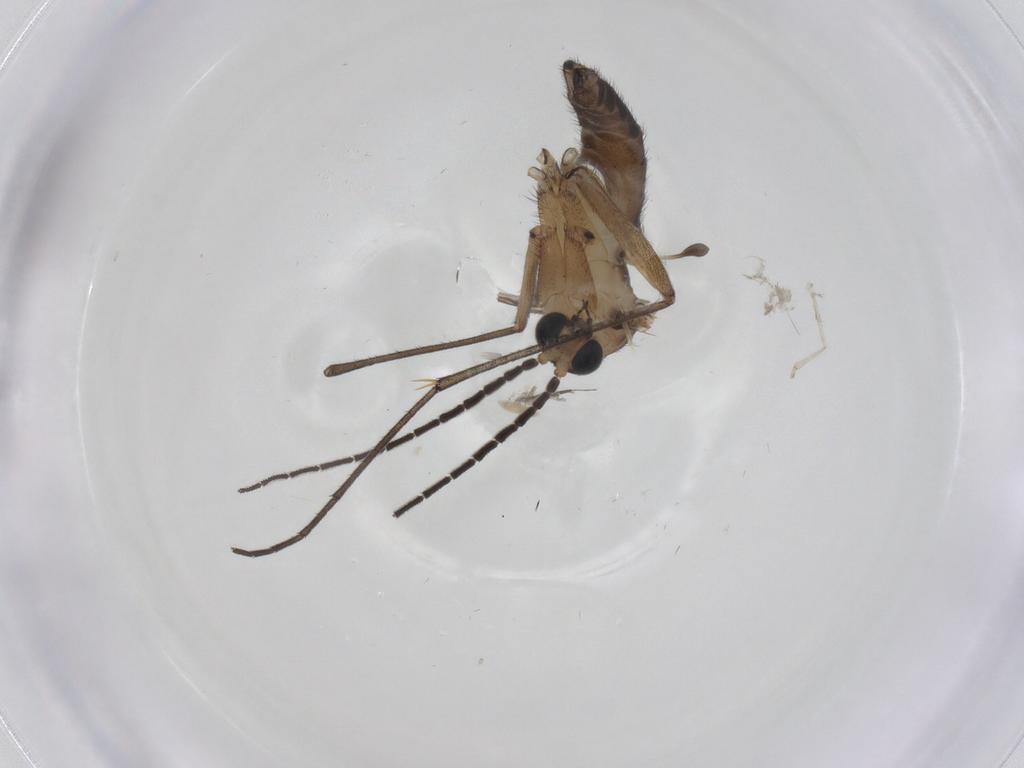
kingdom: Animalia
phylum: Arthropoda
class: Insecta
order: Diptera
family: Sciaridae
